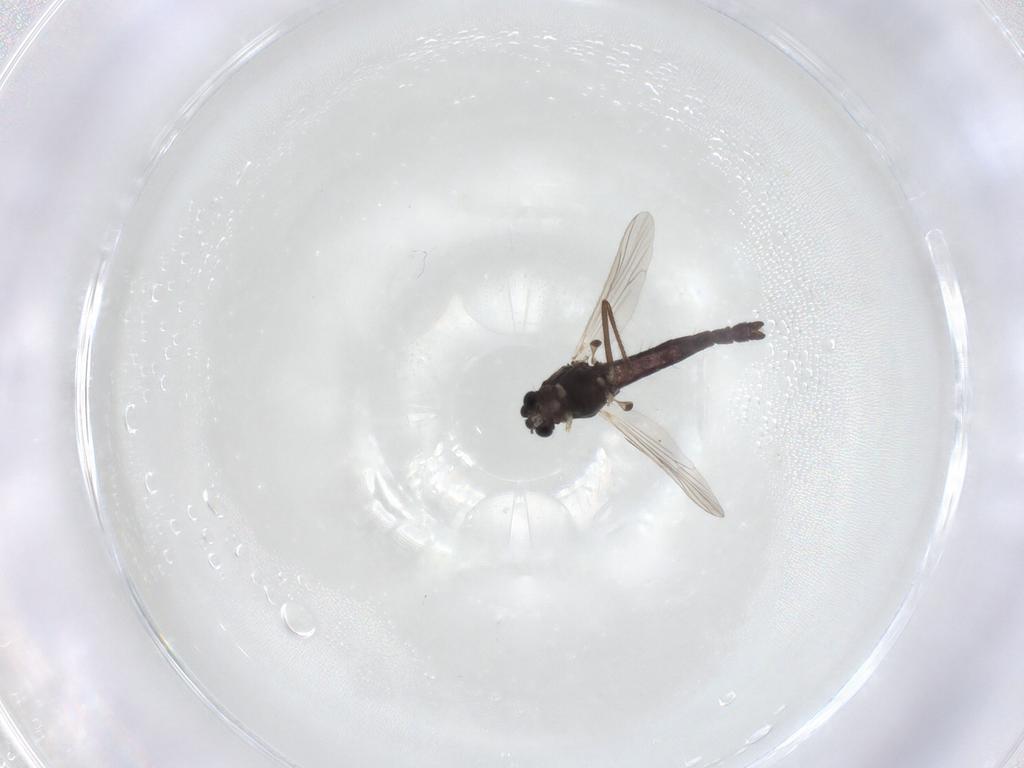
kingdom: Animalia
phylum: Arthropoda
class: Insecta
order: Diptera
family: Chironomidae
